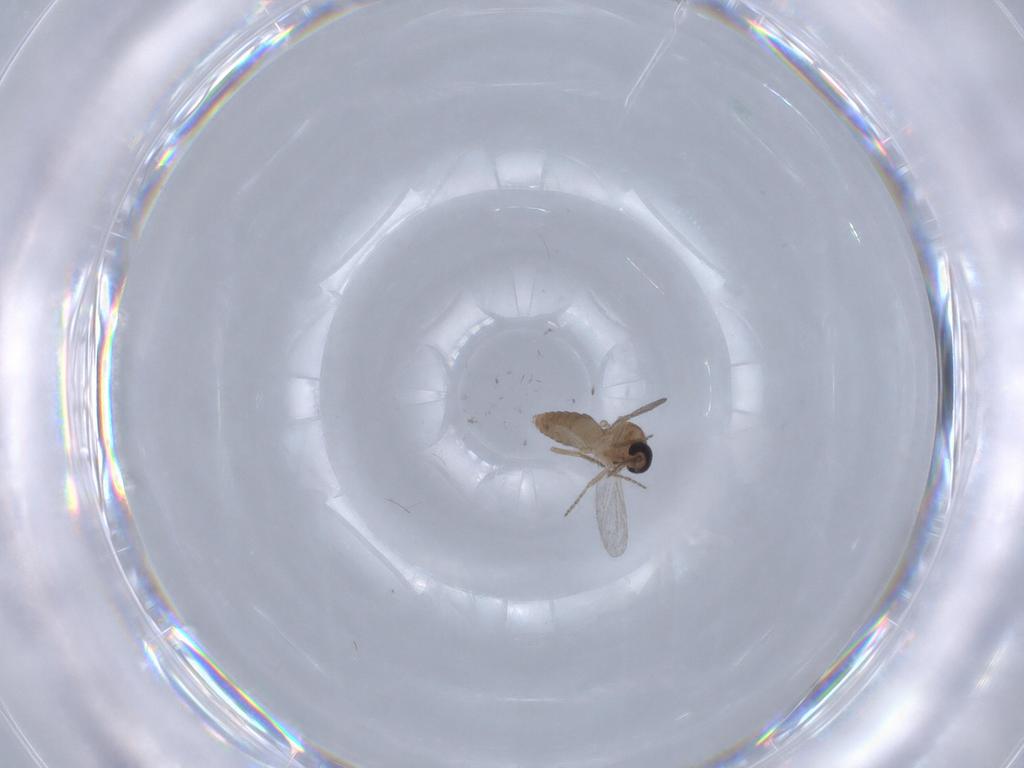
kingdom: Animalia
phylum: Arthropoda
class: Insecta
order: Diptera
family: Ceratopogonidae
